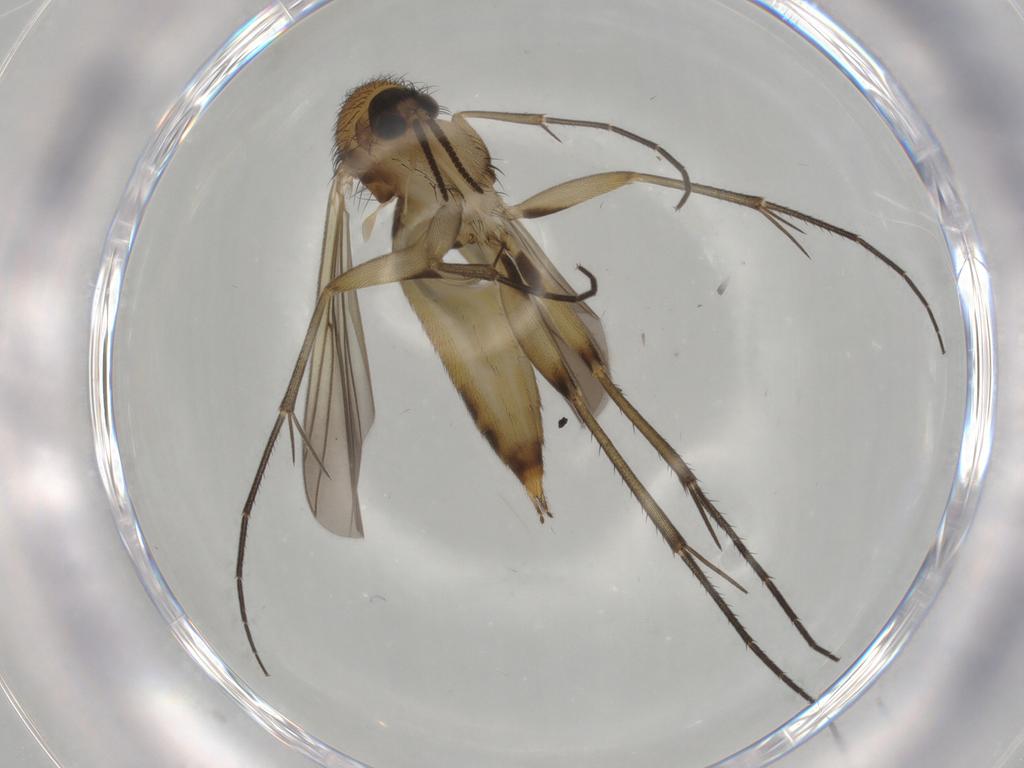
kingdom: Animalia
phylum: Arthropoda
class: Insecta
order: Diptera
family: Mycetophilidae
